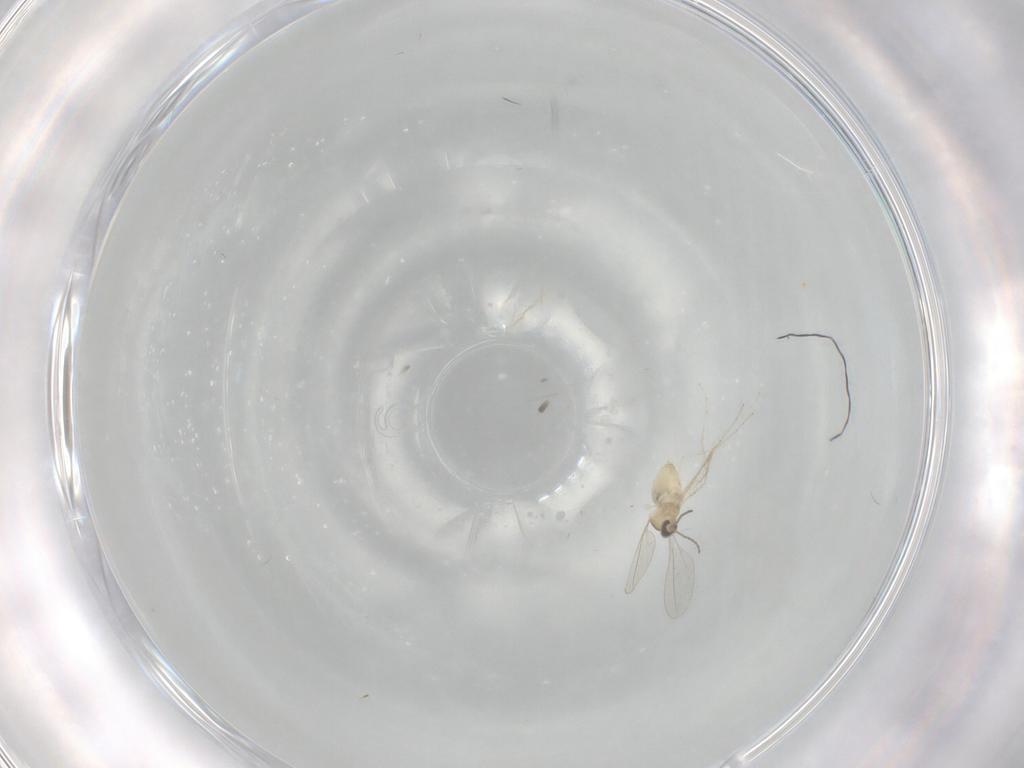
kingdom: Animalia
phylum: Arthropoda
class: Insecta
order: Diptera
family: Cecidomyiidae
